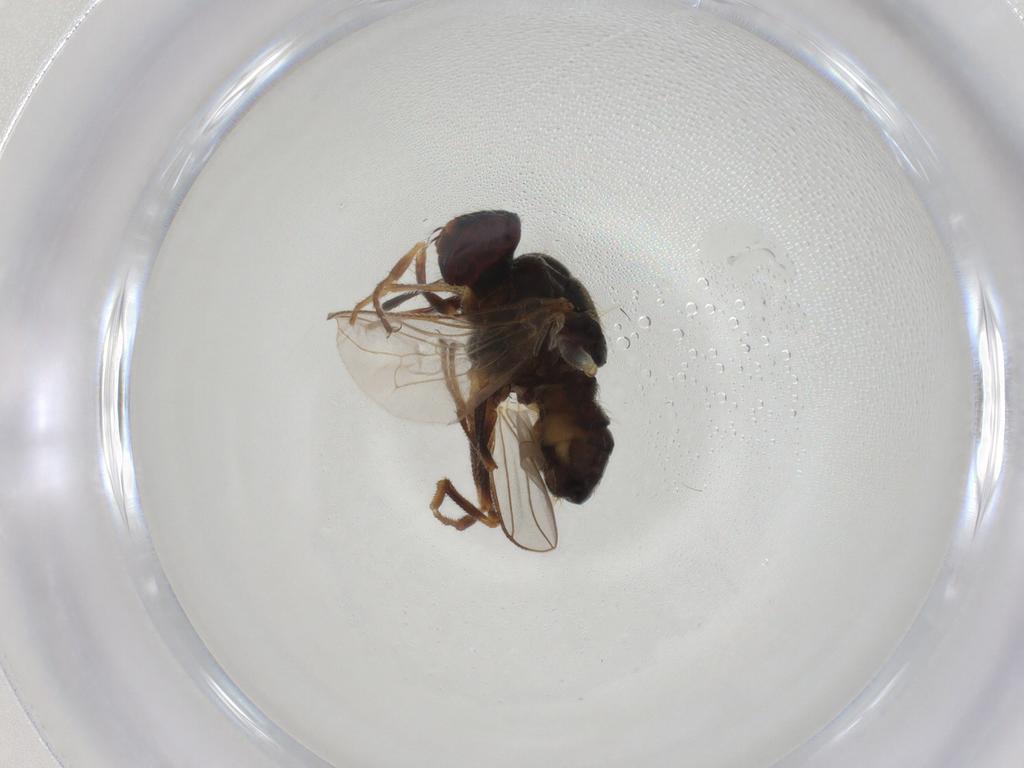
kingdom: Animalia
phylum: Arthropoda
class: Insecta
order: Diptera
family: Muscidae
